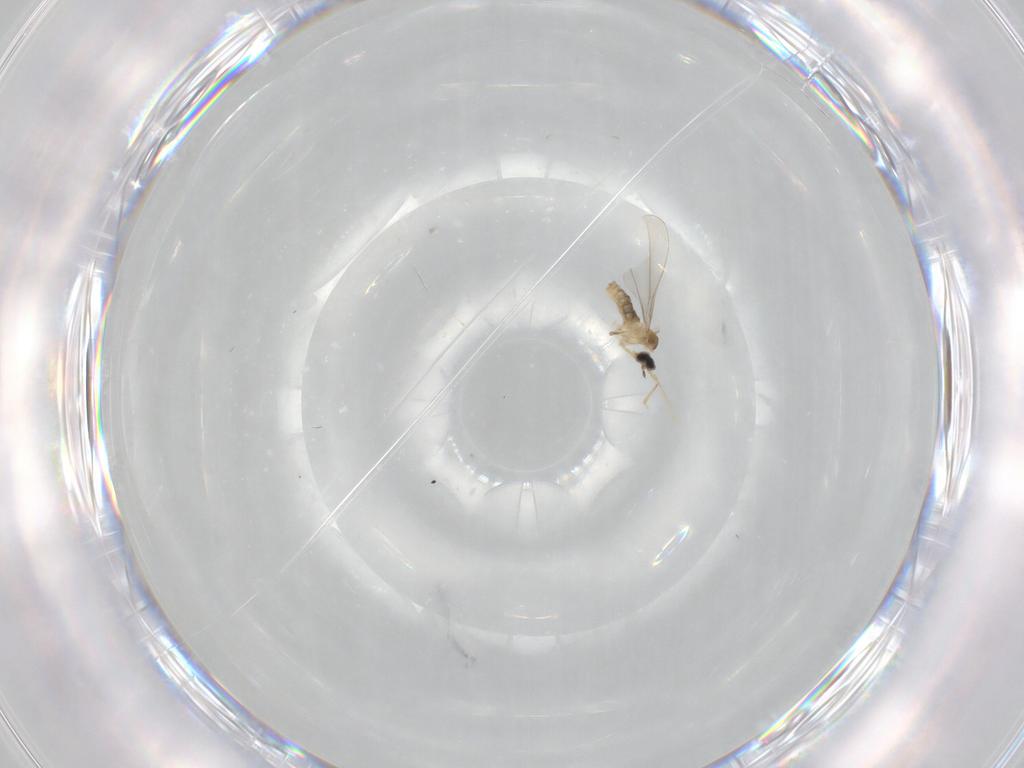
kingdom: Animalia
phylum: Arthropoda
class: Insecta
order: Diptera
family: Cecidomyiidae
